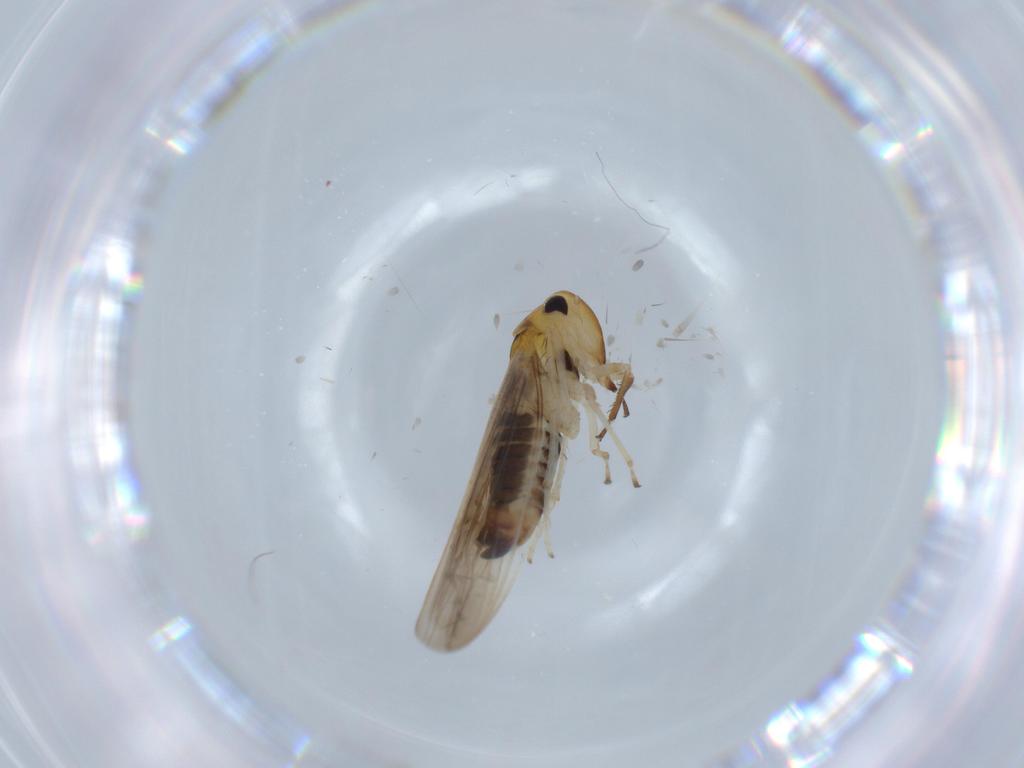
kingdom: Animalia
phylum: Arthropoda
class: Insecta
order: Hemiptera
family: Cicadellidae
